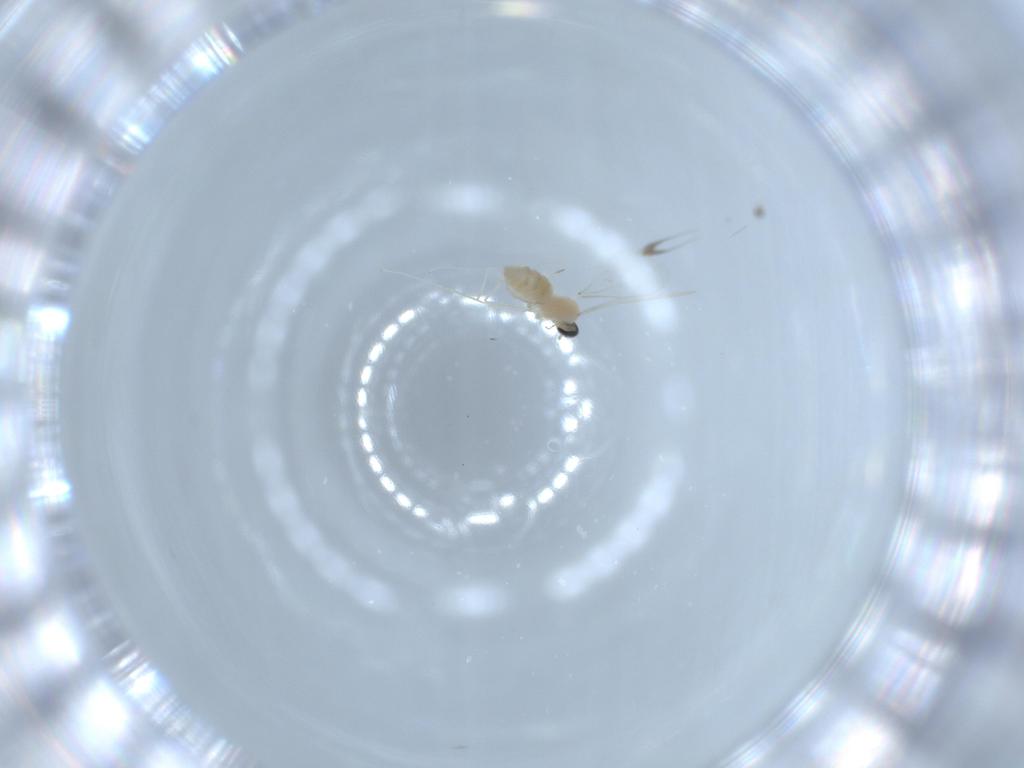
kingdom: Animalia
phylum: Arthropoda
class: Insecta
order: Diptera
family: Cecidomyiidae
